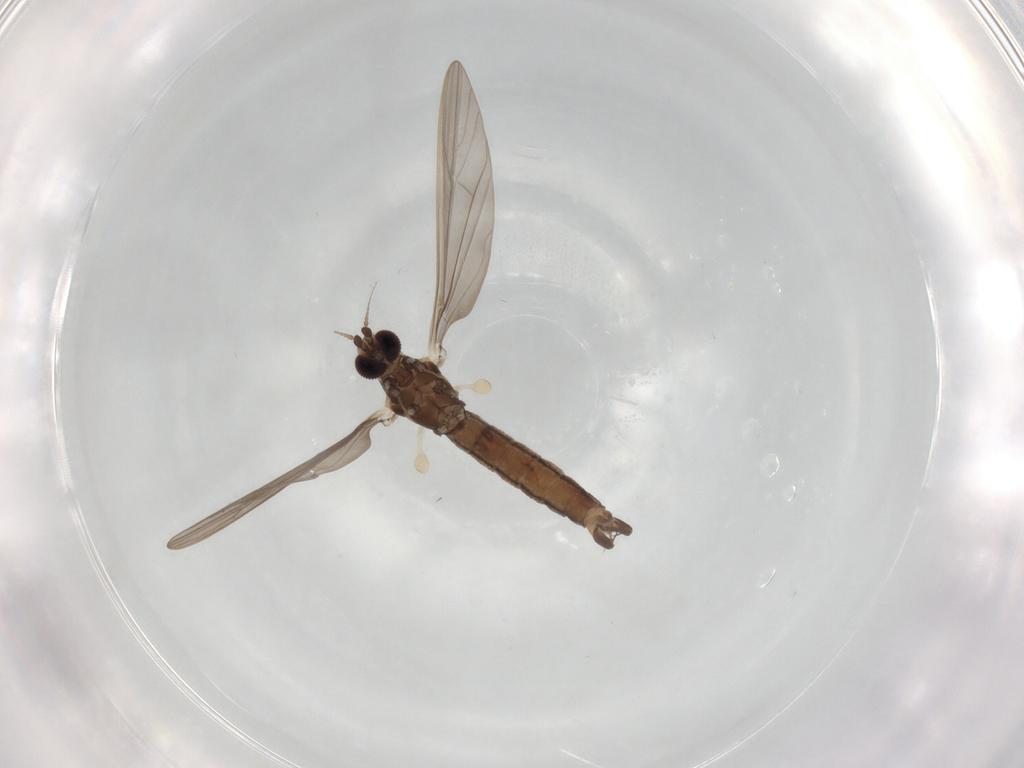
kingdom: Animalia
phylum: Arthropoda
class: Insecta
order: Diptera
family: Limoniidae
